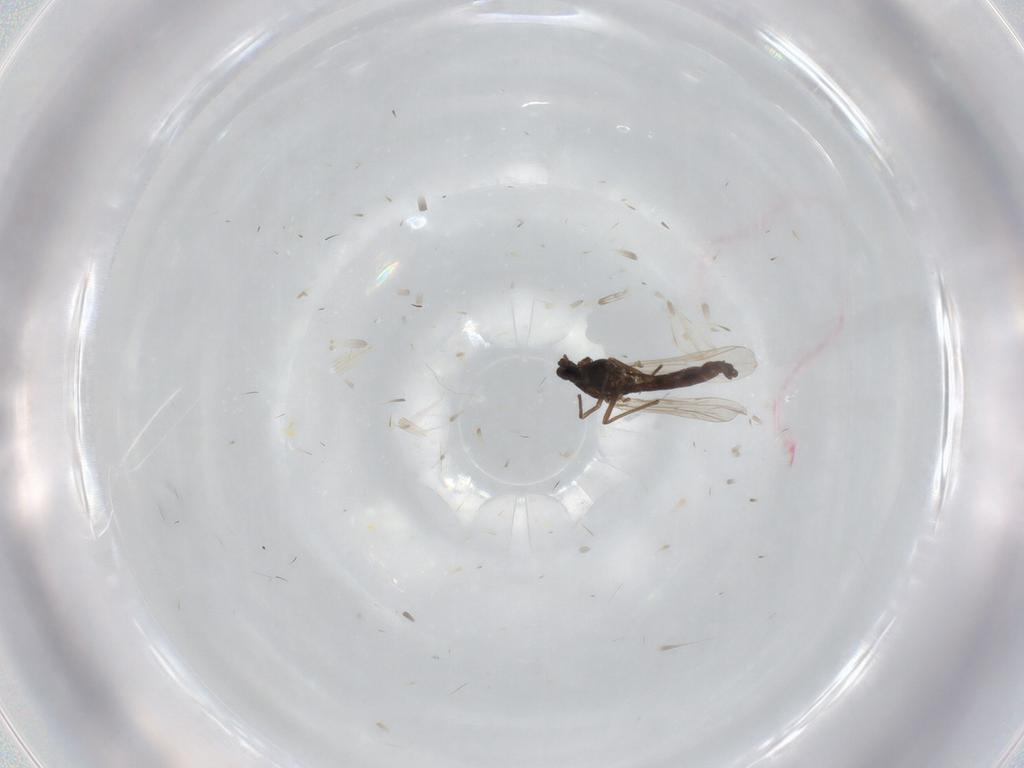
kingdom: Animalia
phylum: Arthropoda
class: Insecta
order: Diptera
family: Chironomidae
